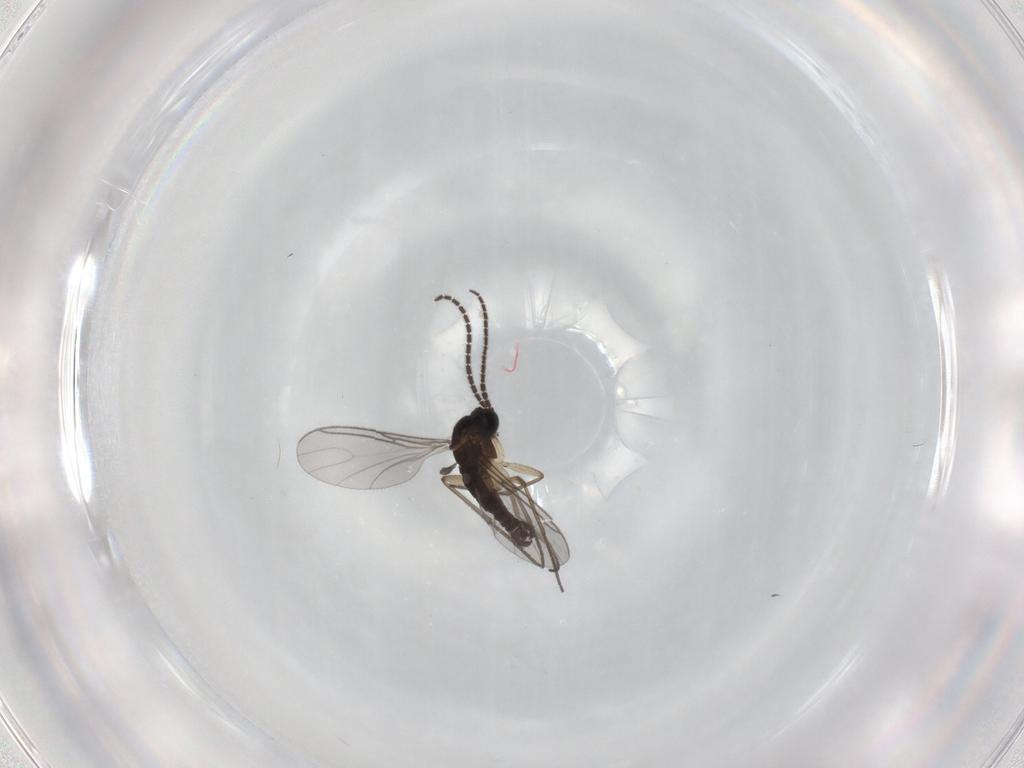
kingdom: Animalia
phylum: Arthropoda
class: Insecta
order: Diptera
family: Sciaridae
